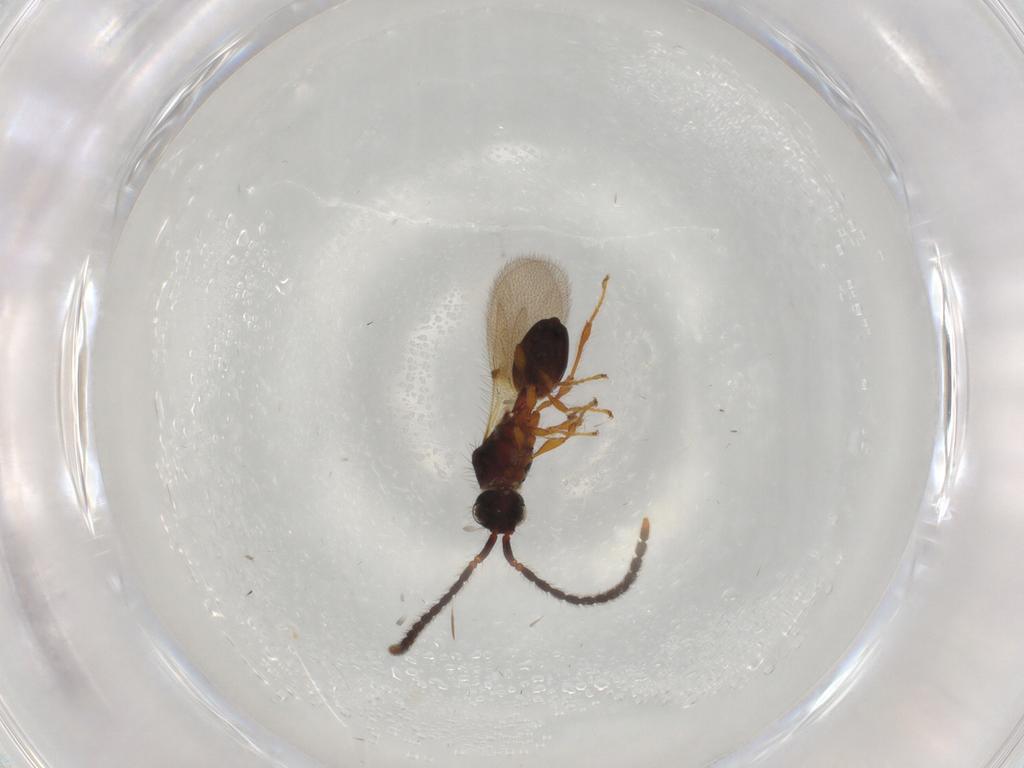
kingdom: Animalia
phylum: Arthropoda
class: Insecta
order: Hymenoptera
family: Diapriidae
